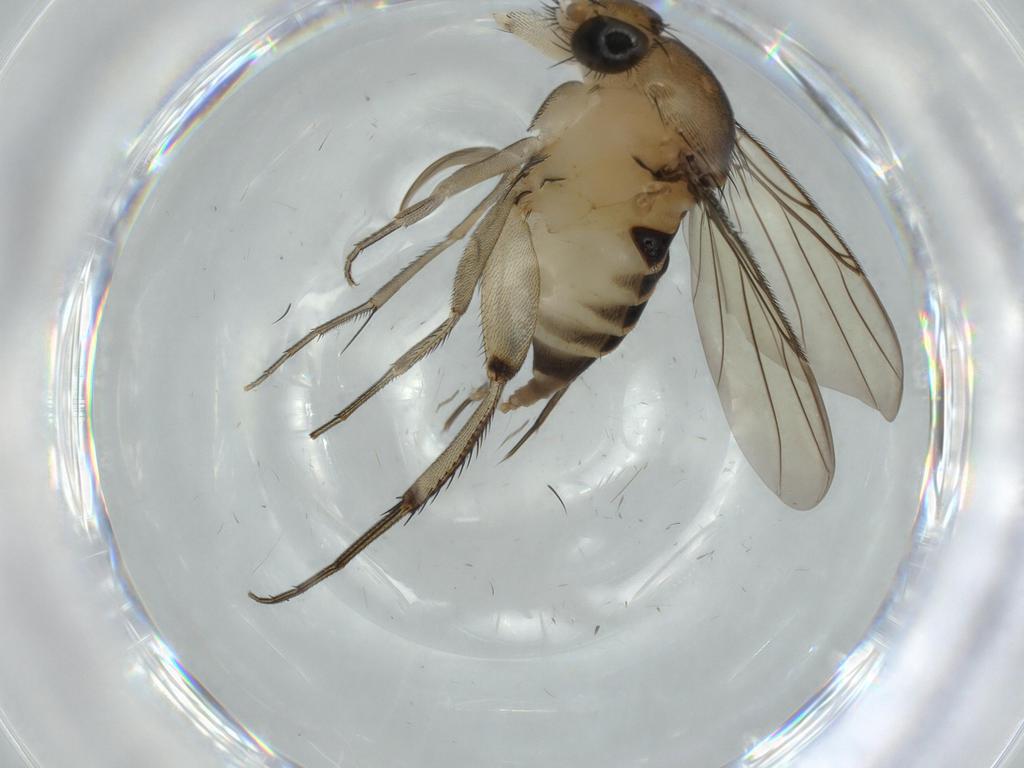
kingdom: Animalia
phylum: Arthropoda
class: Insecta
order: Diptera
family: Phoridae
